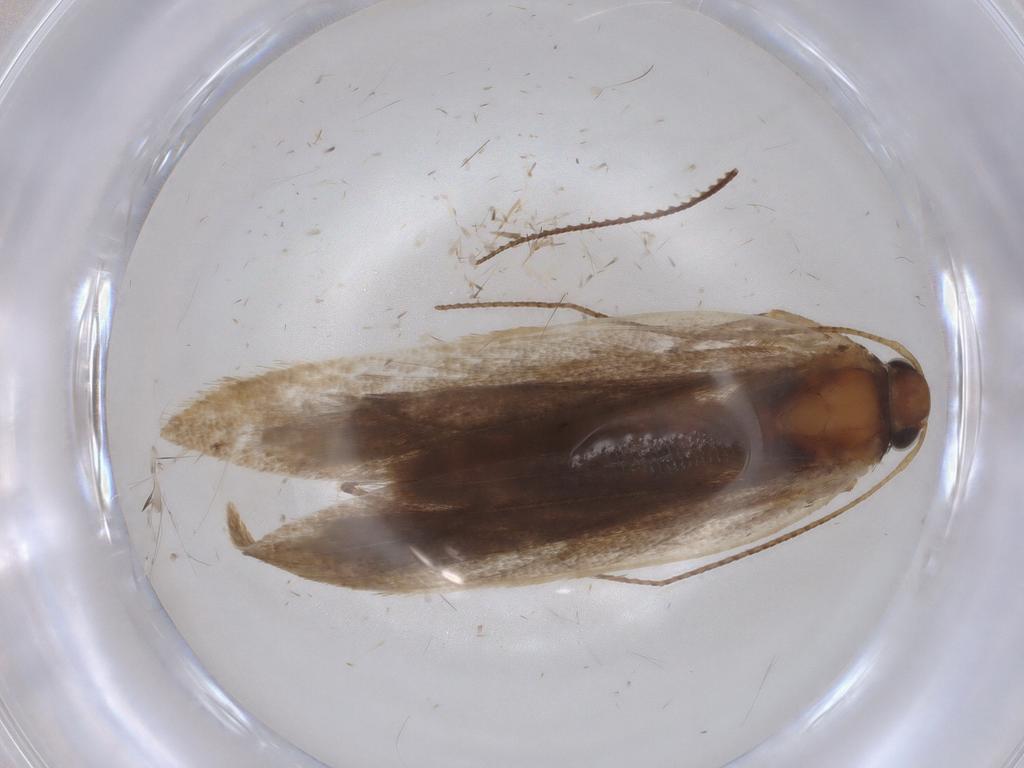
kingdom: Animalia
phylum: Arthropoda
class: Insecta
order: Lepidoptera
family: Gelechiidae
